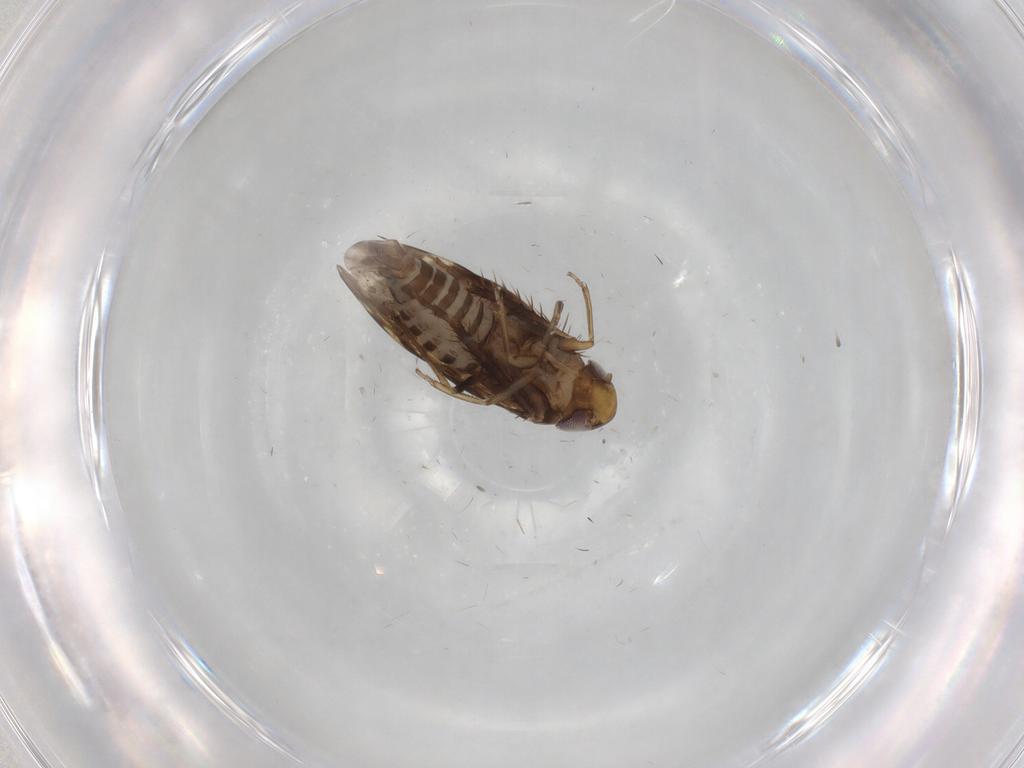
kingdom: Animalia
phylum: Arthropoda
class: Insecta
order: Hemiptera
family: Cicadellidae
